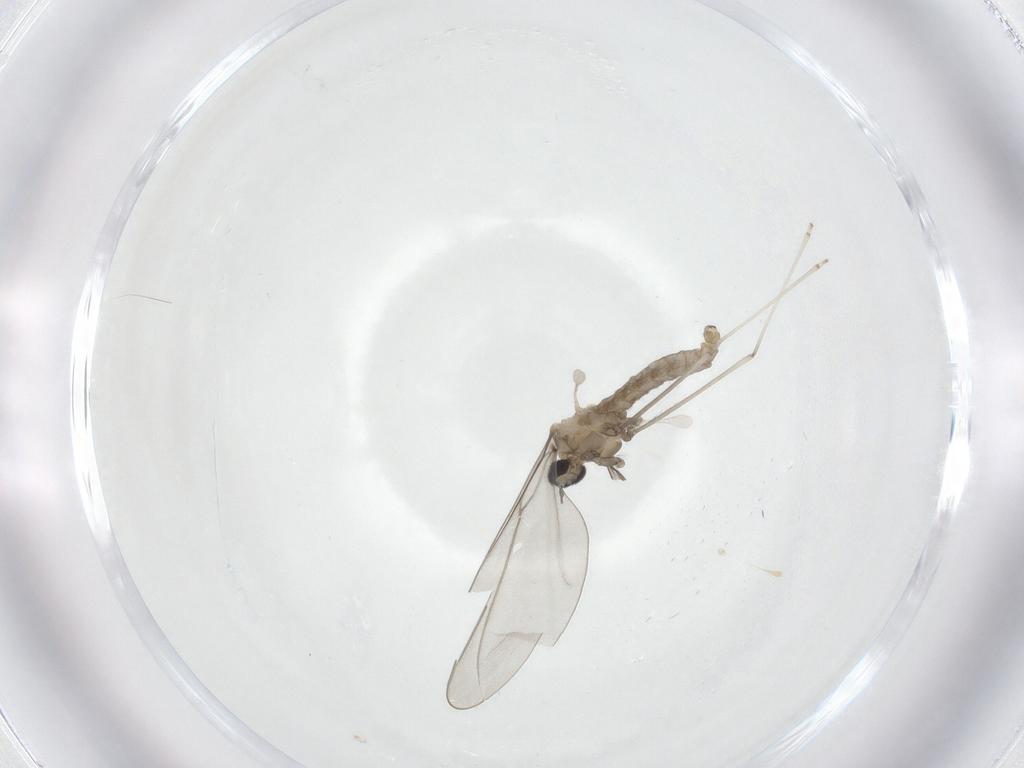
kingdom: Animalia
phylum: Arthropoda
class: Insecta
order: Diptera
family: Chironomidae
